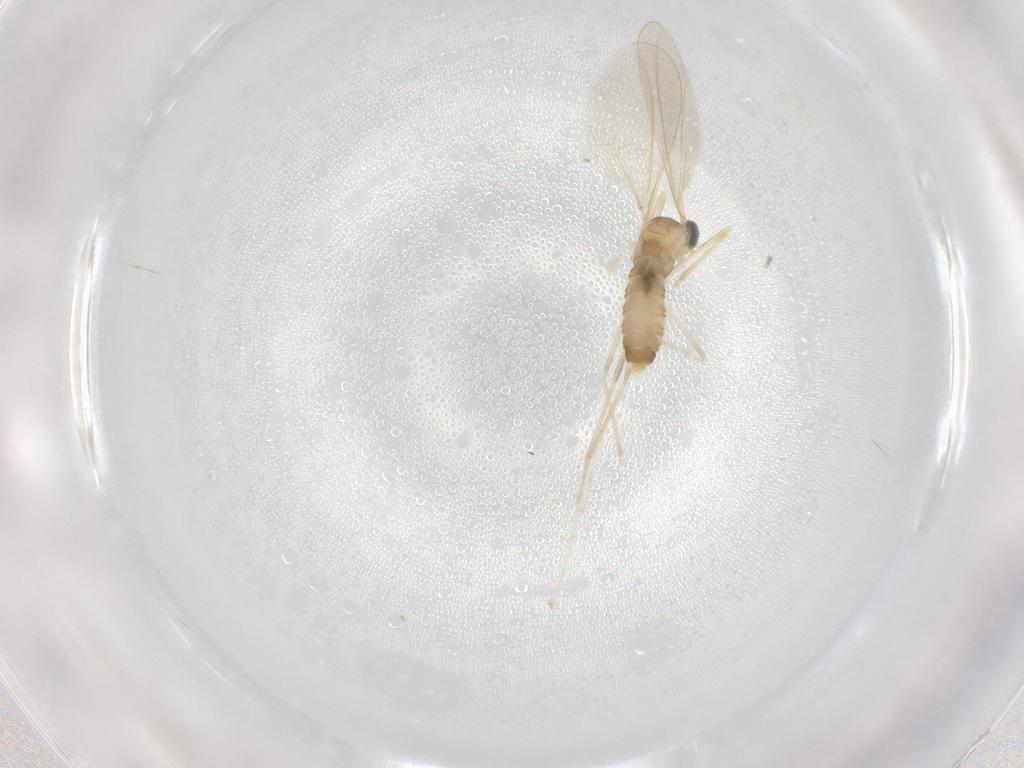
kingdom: Animalia
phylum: Arthropoda
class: Insecta
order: Diptera
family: Cecidomyiidae
